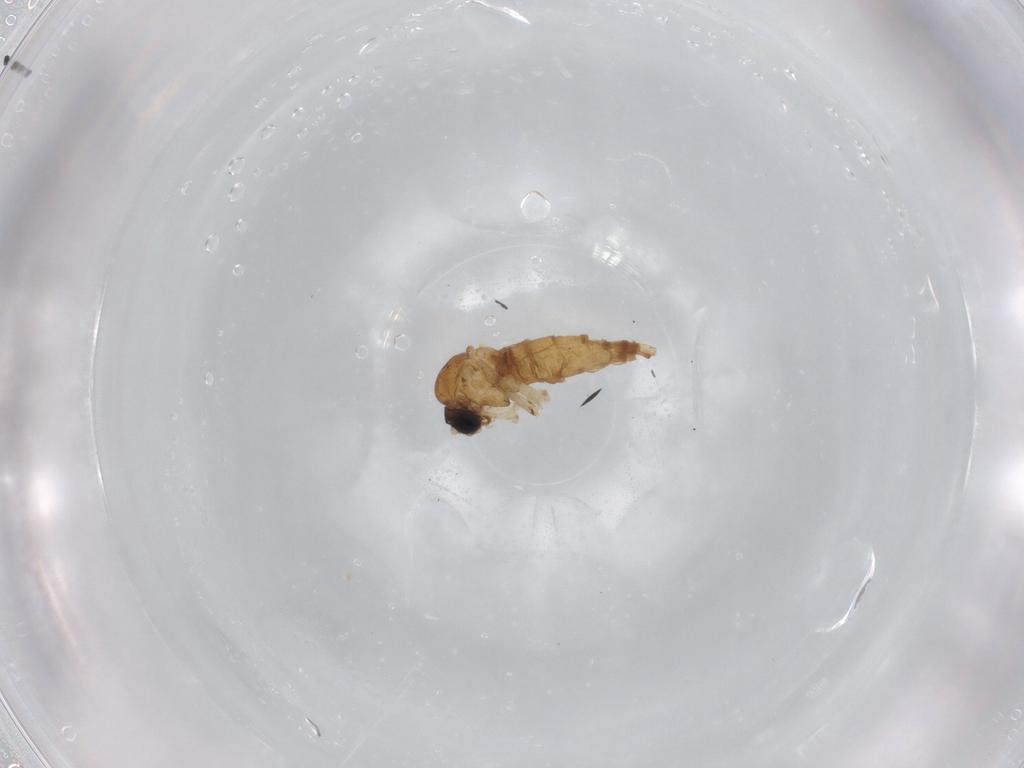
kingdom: Animalia
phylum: Arthropoda
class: Insecta
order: Diptera
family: Sciaridae
